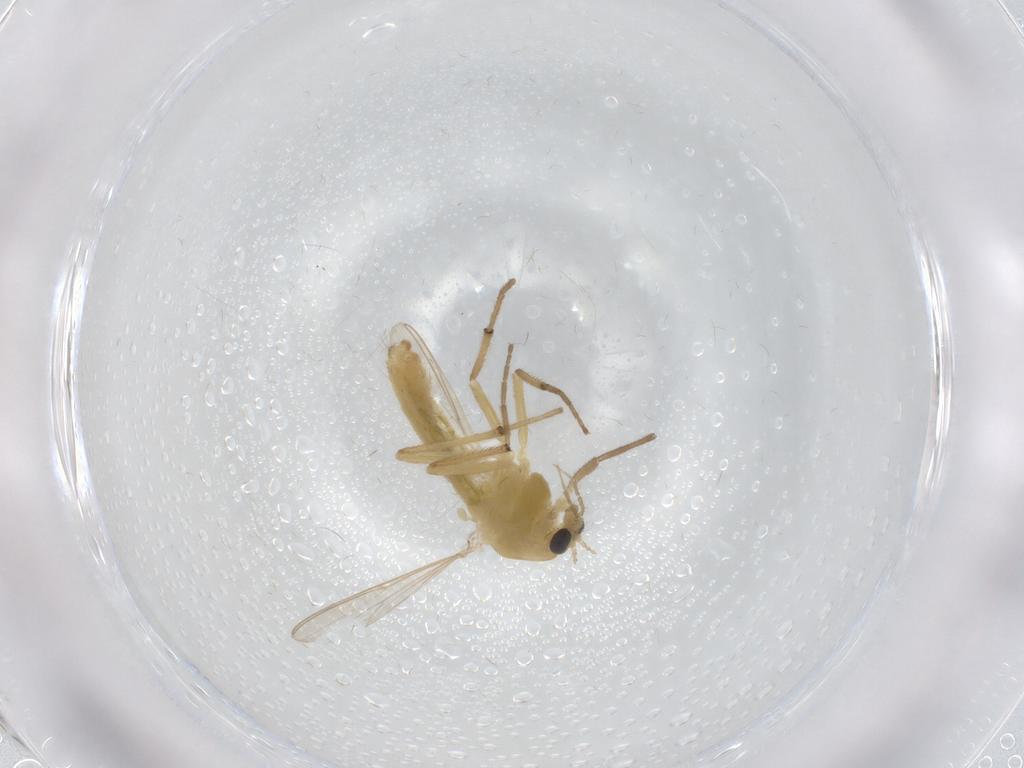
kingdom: Animalia
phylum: Arthropoda
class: Insecta
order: Diptera
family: Chironomidae
